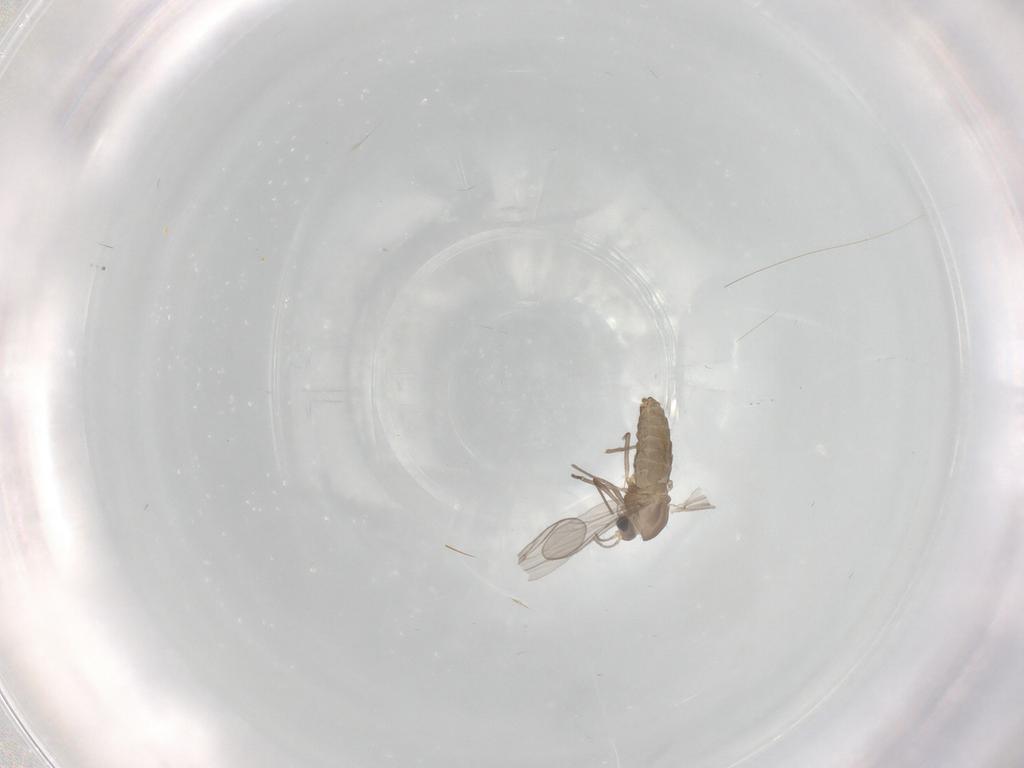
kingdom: Animalia
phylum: Arthropoda
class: Insecta
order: Diptera
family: Chironomidae
